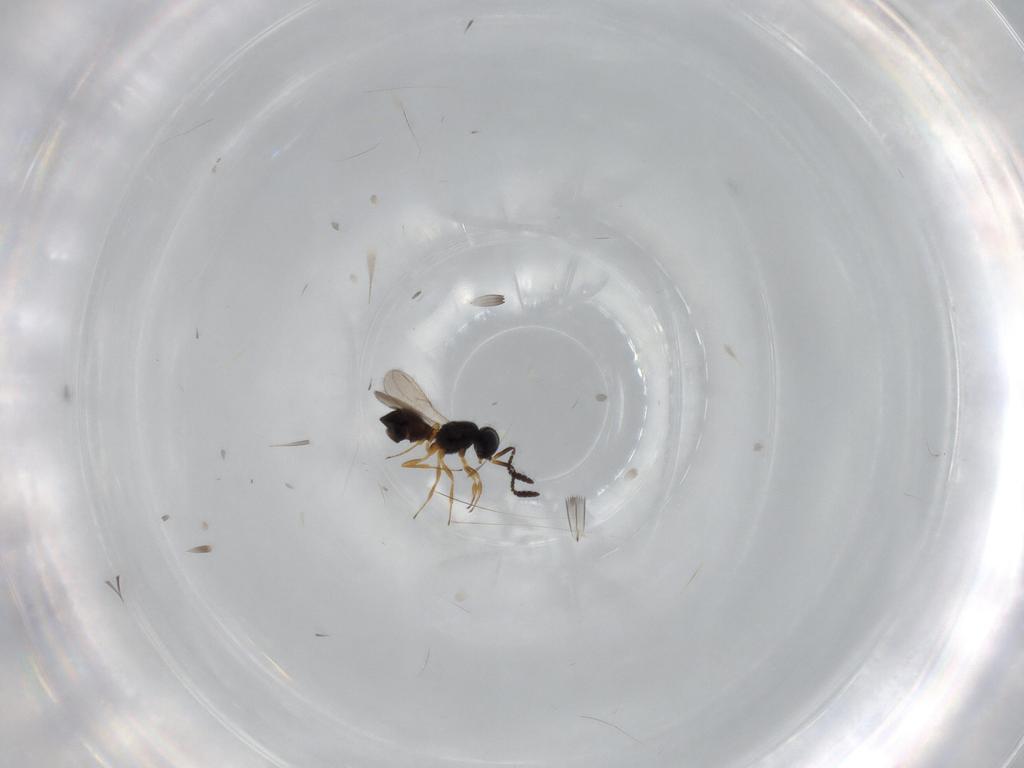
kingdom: Animalia
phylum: Arthropoda
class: Insecta
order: Hymenoptera
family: Scelionidae
